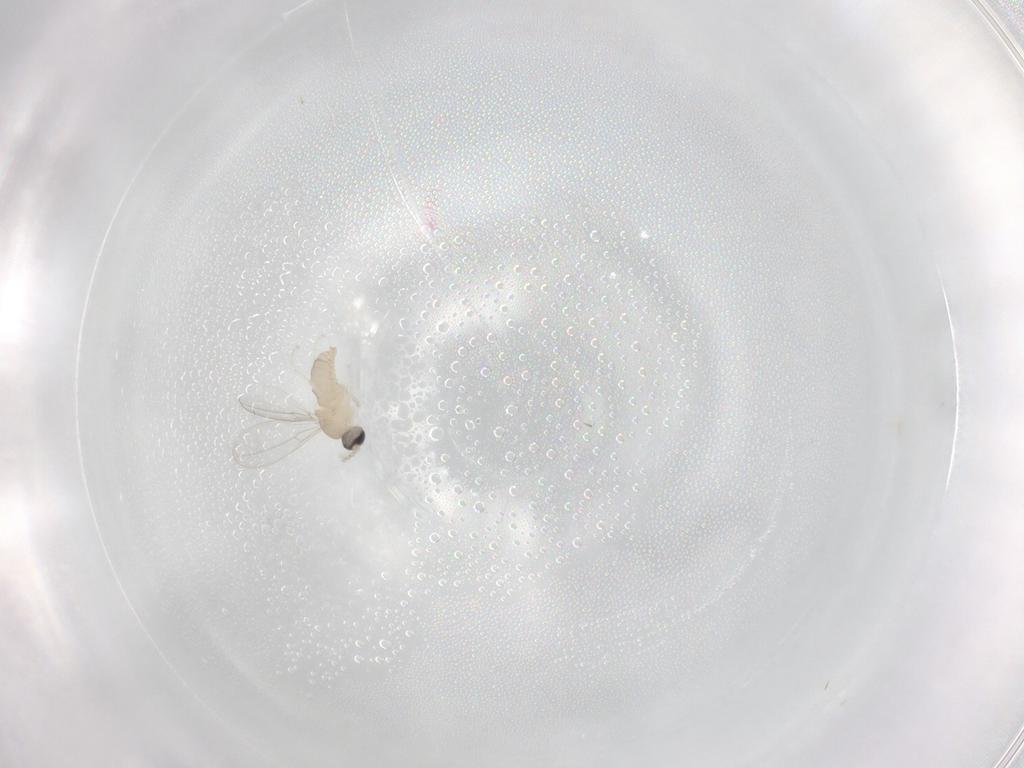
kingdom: Animalia
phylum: Arthropoda
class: Insecta
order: Diptera
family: Cecidomyiidae
